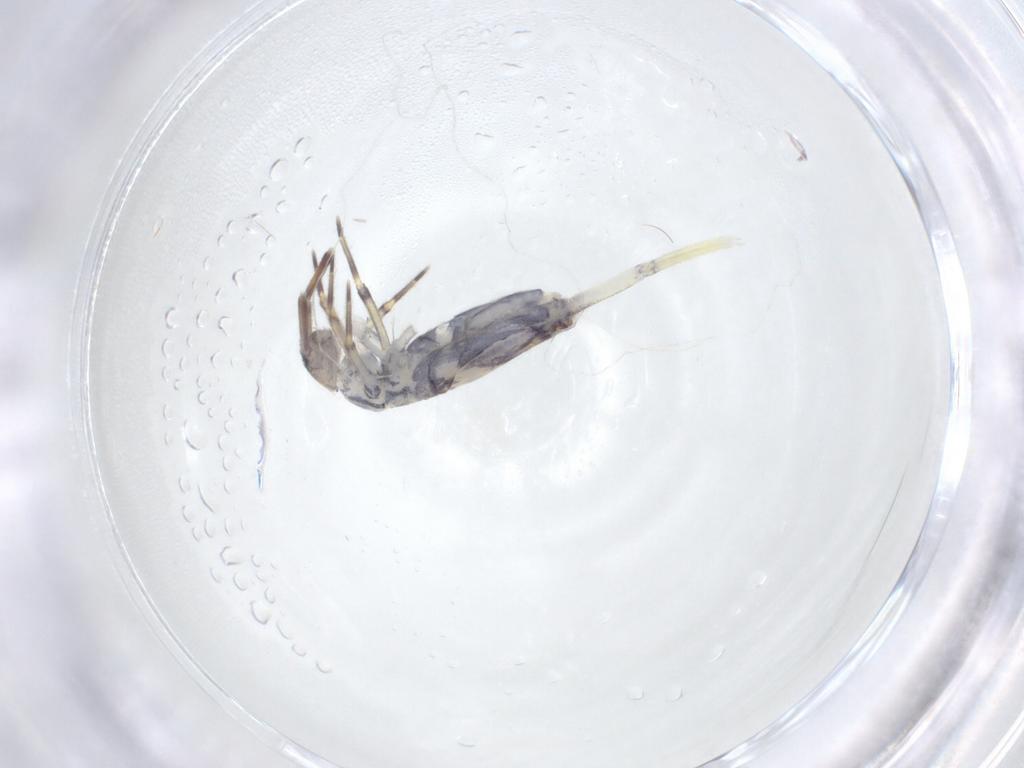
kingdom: Animalia
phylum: Arthropoda
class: Collembola
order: Entomobryomorpha
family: Entomobryidae
